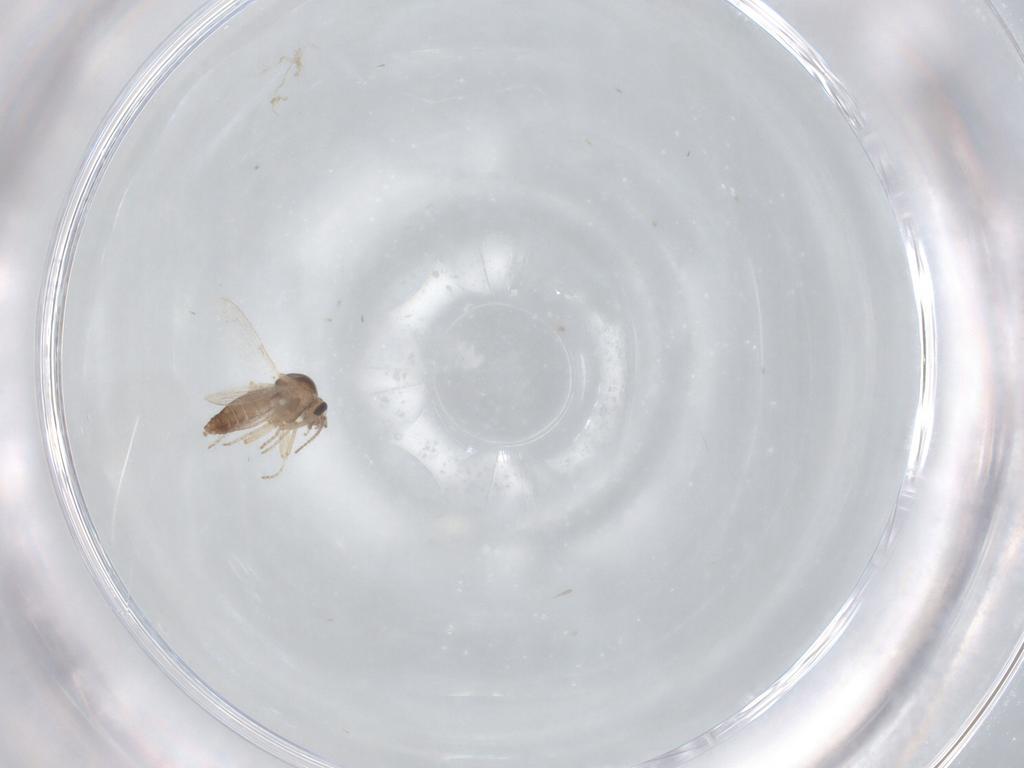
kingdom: Animalia
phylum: Arthropoda
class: Insecta
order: Diptera
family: Ceratopogonidae
